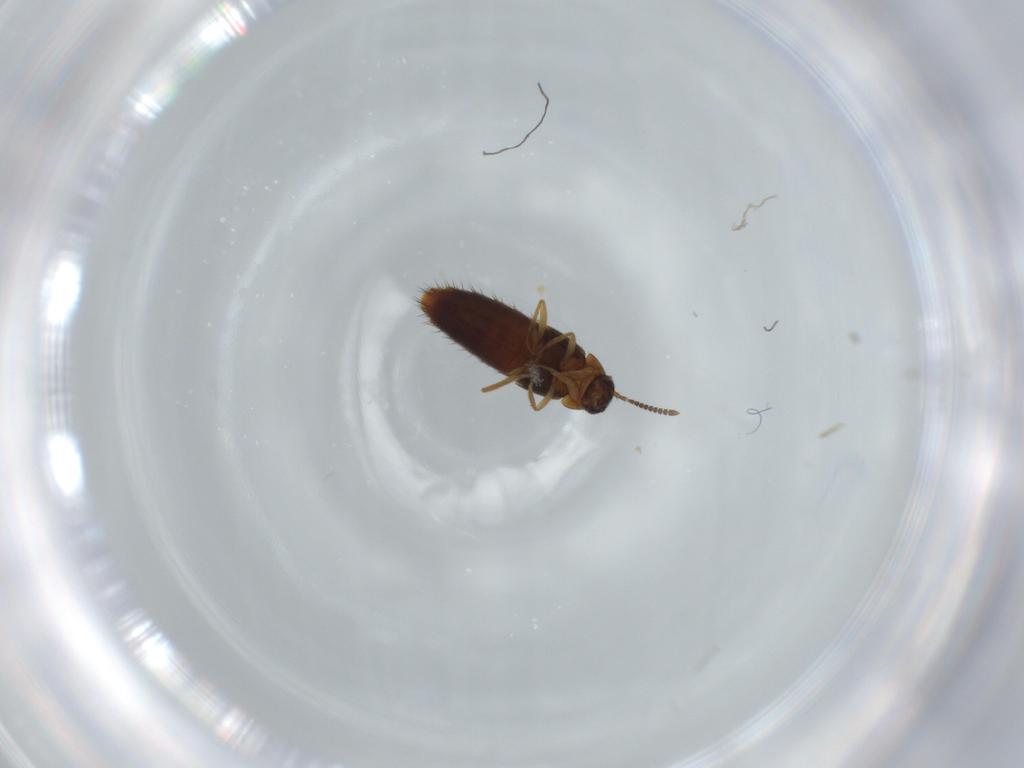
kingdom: Animalia
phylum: Arthropoda
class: Insecta
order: Coleoptera
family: Staphylinidae
